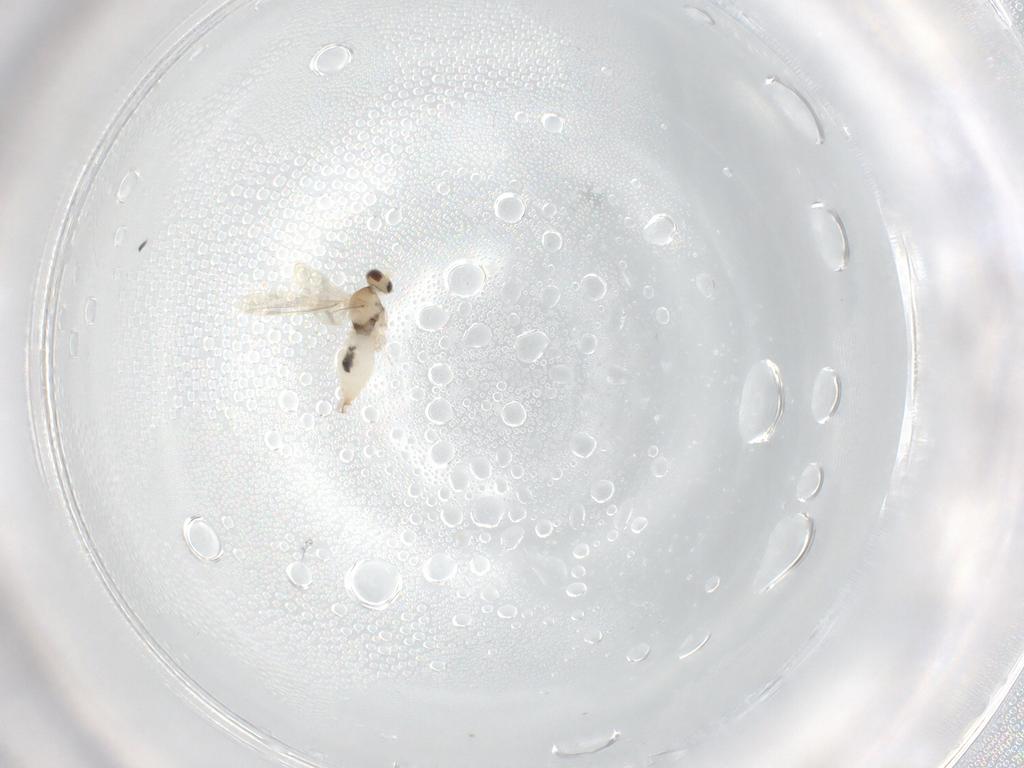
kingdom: Animalia
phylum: Arthropoda
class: Insecta
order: Diptera
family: Cecidomyiidae
